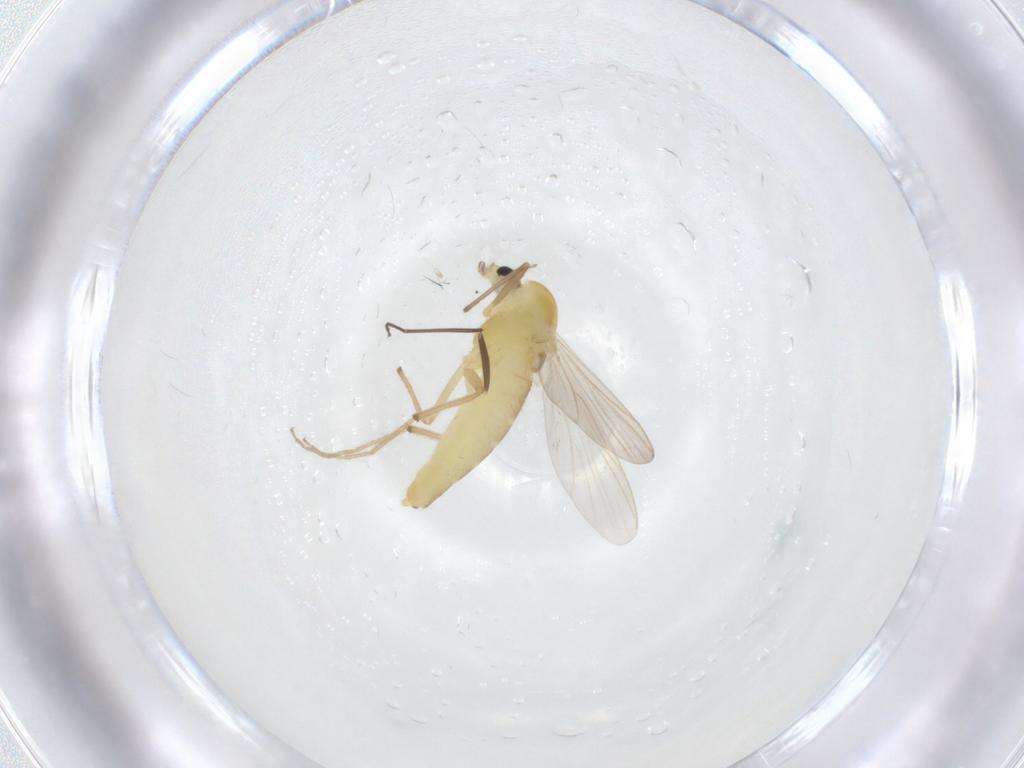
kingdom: Animalia
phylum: Arthropoda
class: Insecta
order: Diptera
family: Chironomidae
